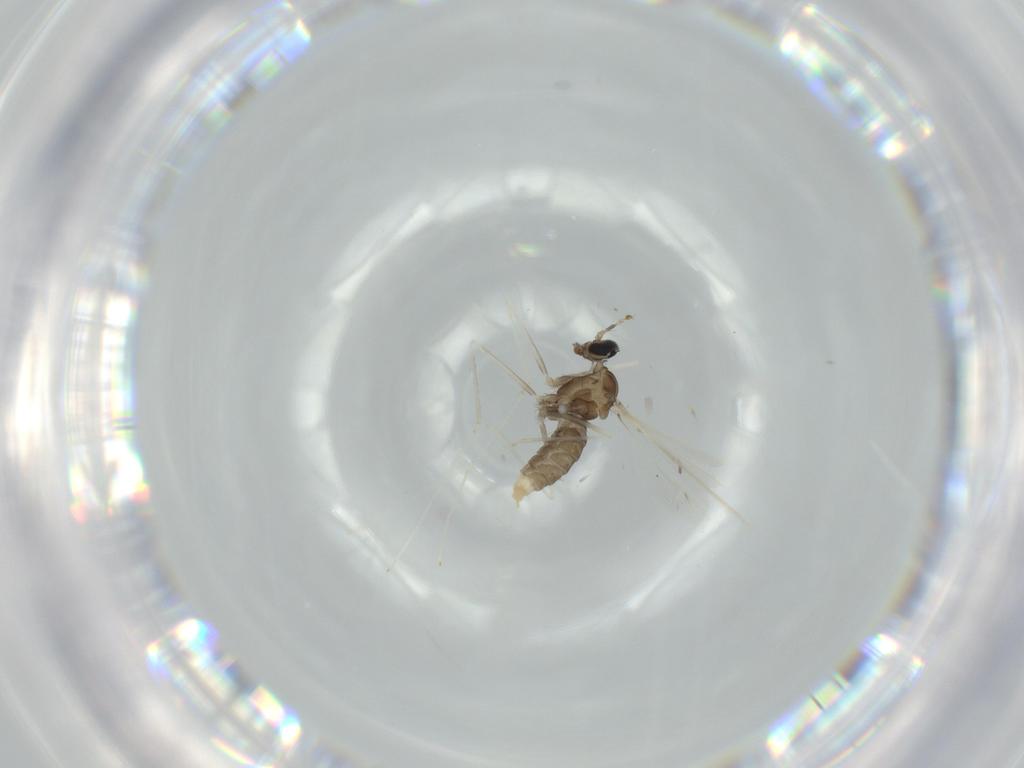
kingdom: Animalia
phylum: Arthropoda
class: Insecta
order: Diptera
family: Cecidomyiidae
